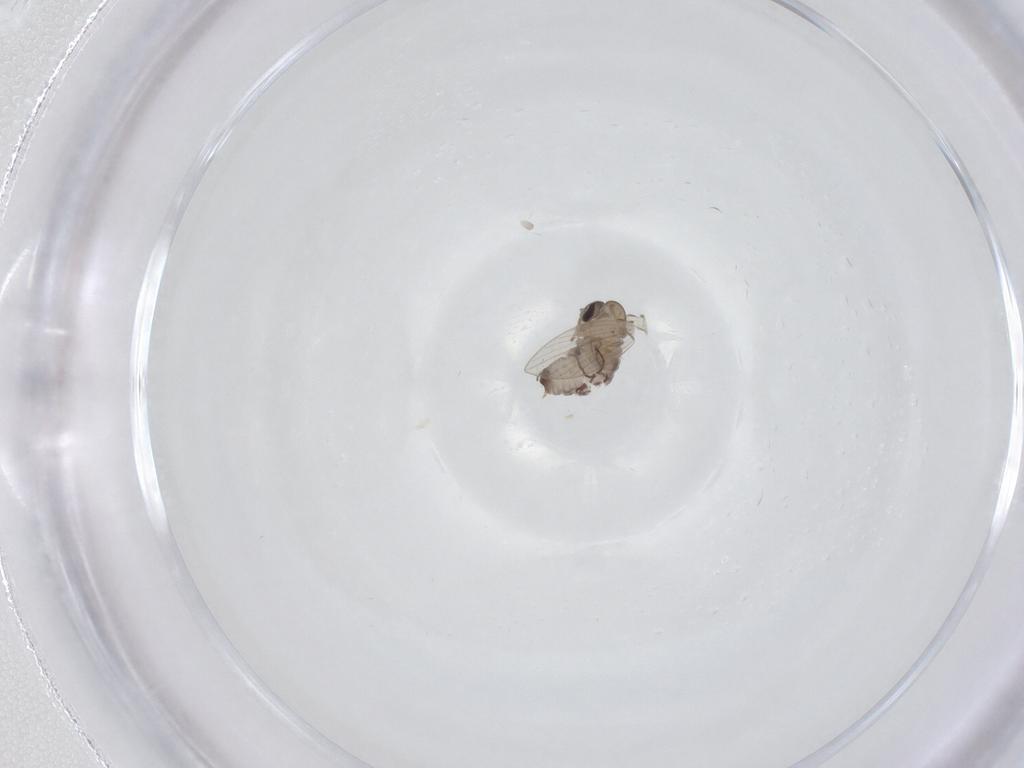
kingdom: Animalia
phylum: Arthropoda
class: Insecta
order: Diptera
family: Psychodidae
